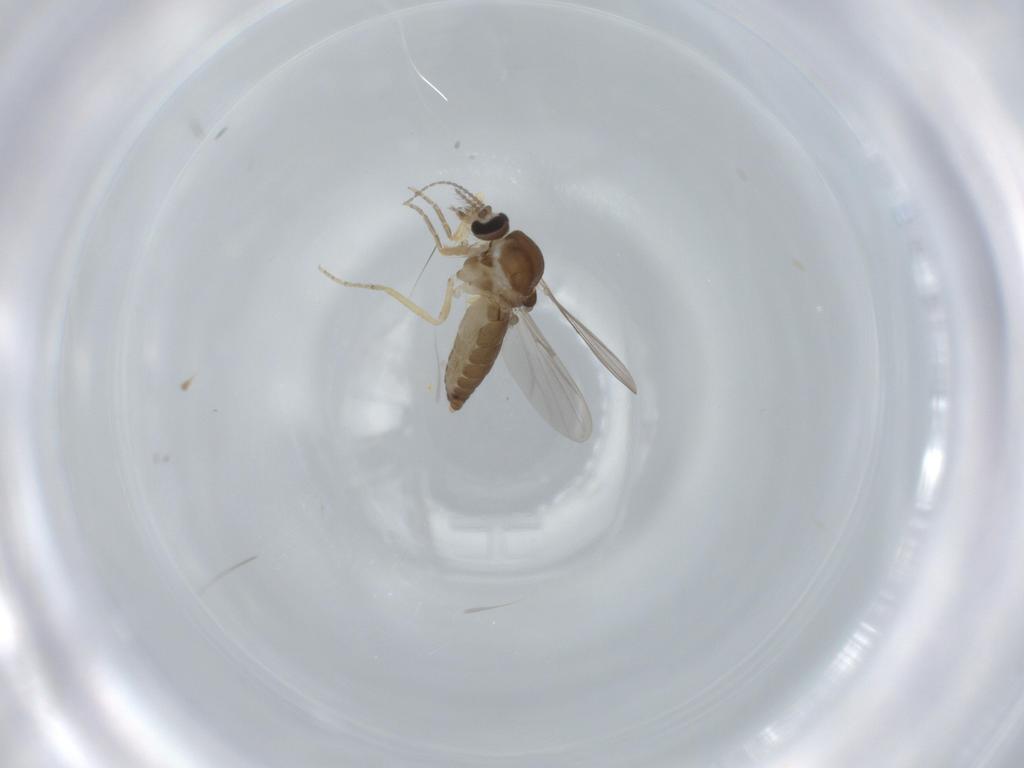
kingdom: Animalia
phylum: Arthropoda
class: Insecta
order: Diptera
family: Ceratopogonidae
